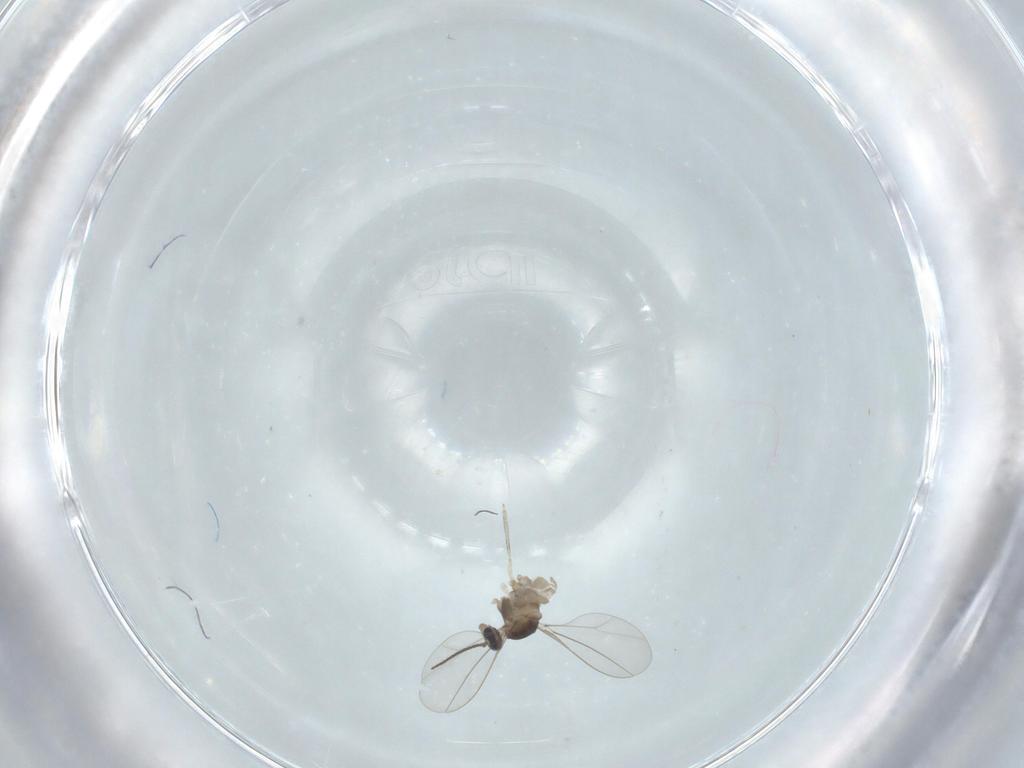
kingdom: Animalia
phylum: Arthropoda
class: Insecta
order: Diptera
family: Cecidomyiidae
